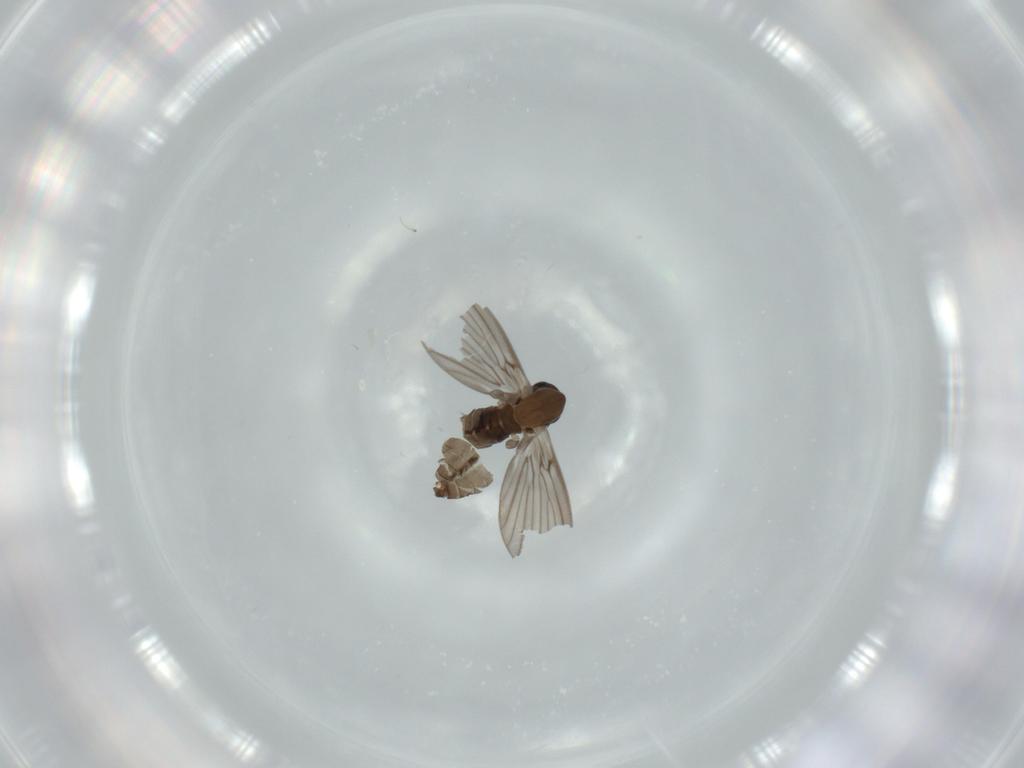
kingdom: Animalia
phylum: Arthropoda
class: Insecta
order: Diptera
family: Psychodidae
